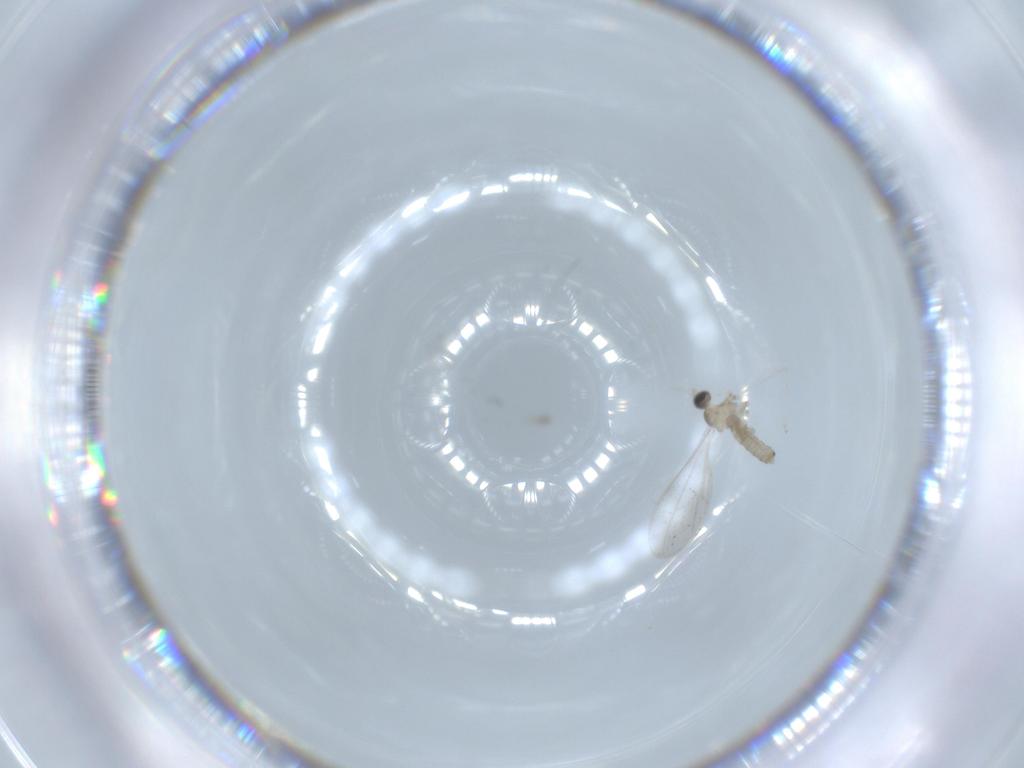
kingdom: Animalia
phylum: Arthropoda
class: Insecta
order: Diptera
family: Cecidomyiidae
